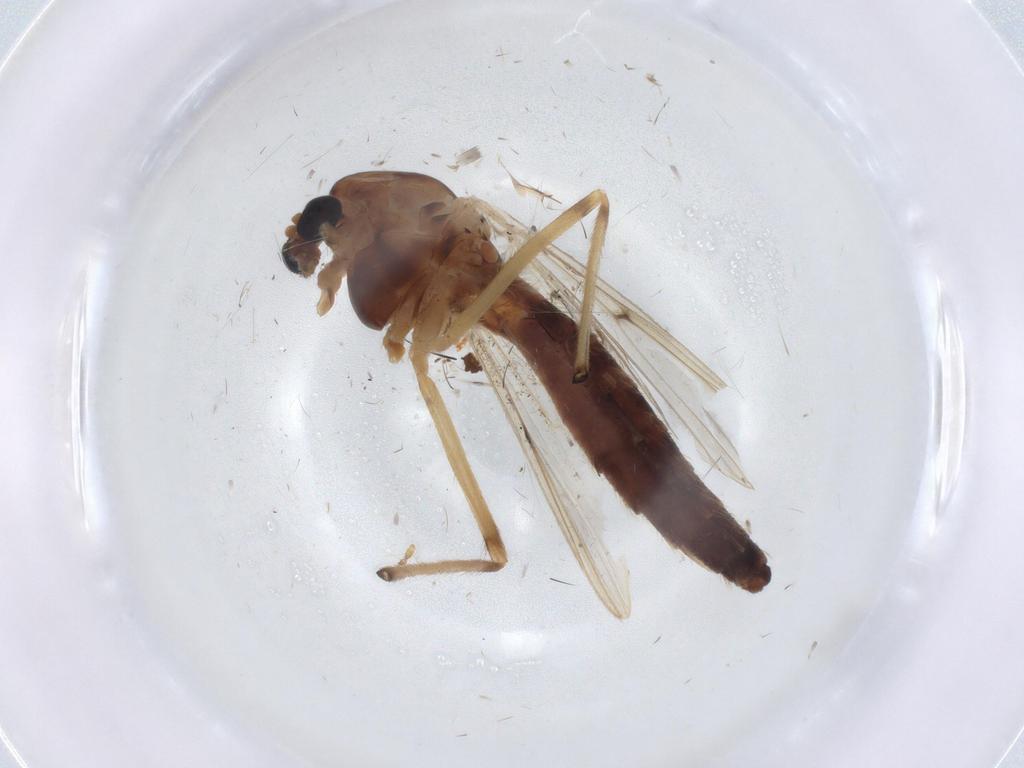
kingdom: Animalia
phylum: Arthropoda
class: Insecta
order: Diptera
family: Chironomidae
